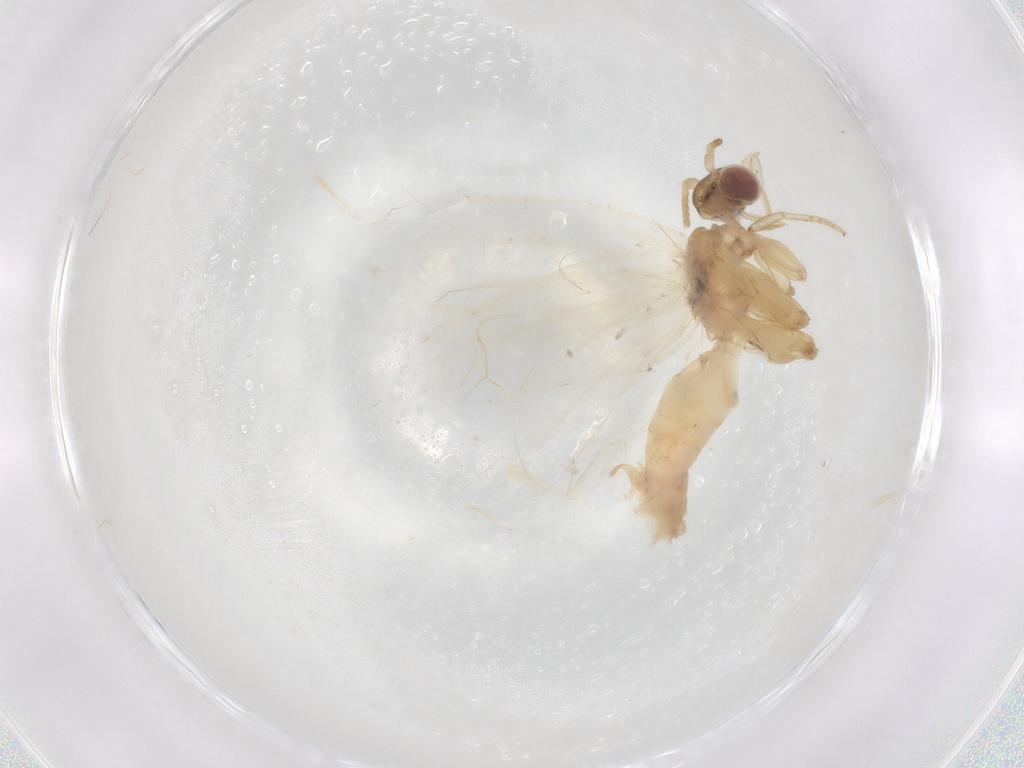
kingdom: Animalia
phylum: Arthropoda
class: Insecta
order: Lepidoptera
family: Tortricidae
